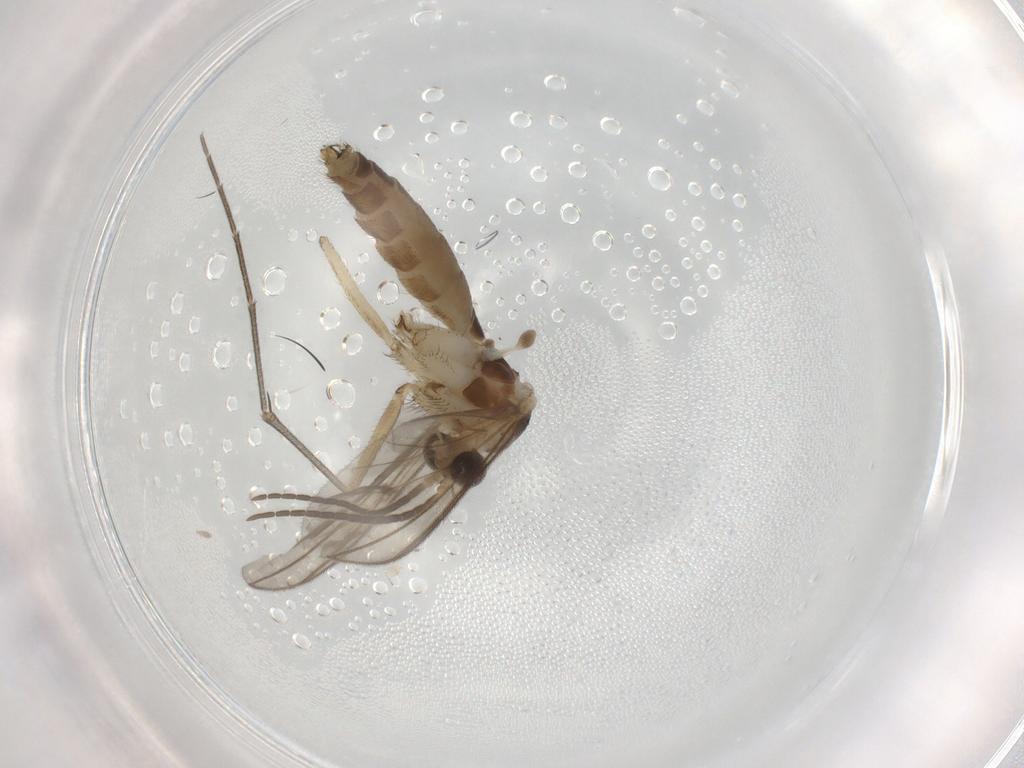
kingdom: Animalia
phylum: Arthropoda
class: Insecta
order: Diptera
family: Mycetophilidae
